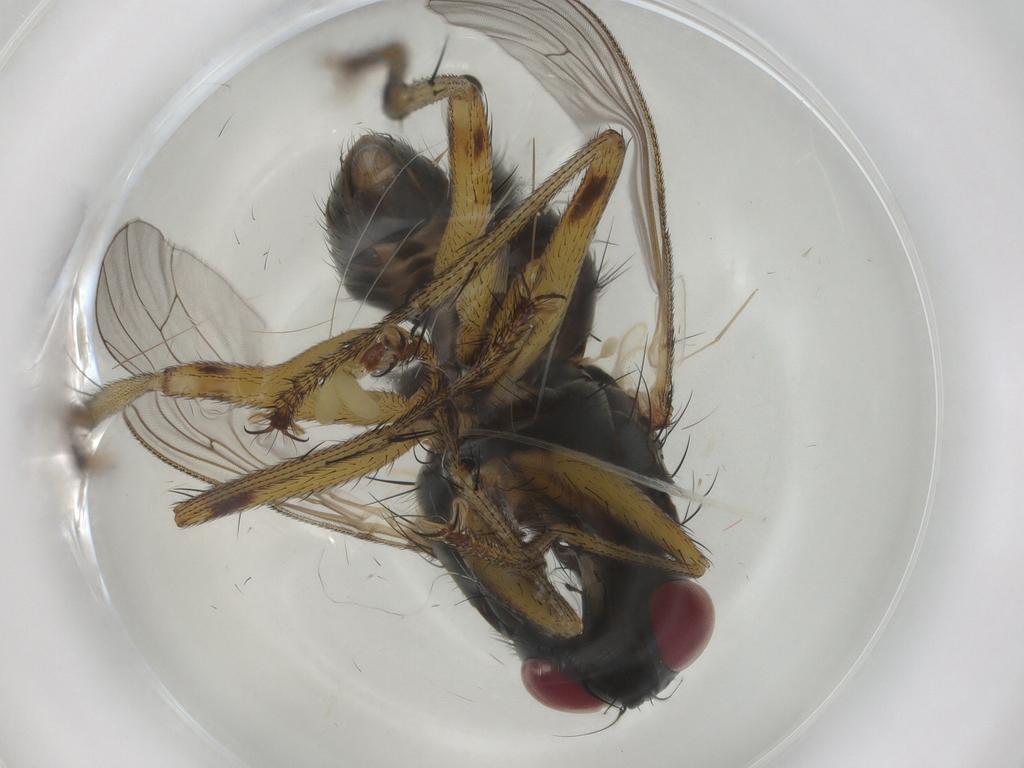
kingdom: Animalia
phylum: Arthropoda
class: Insecta
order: Diptera
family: Muscidae
